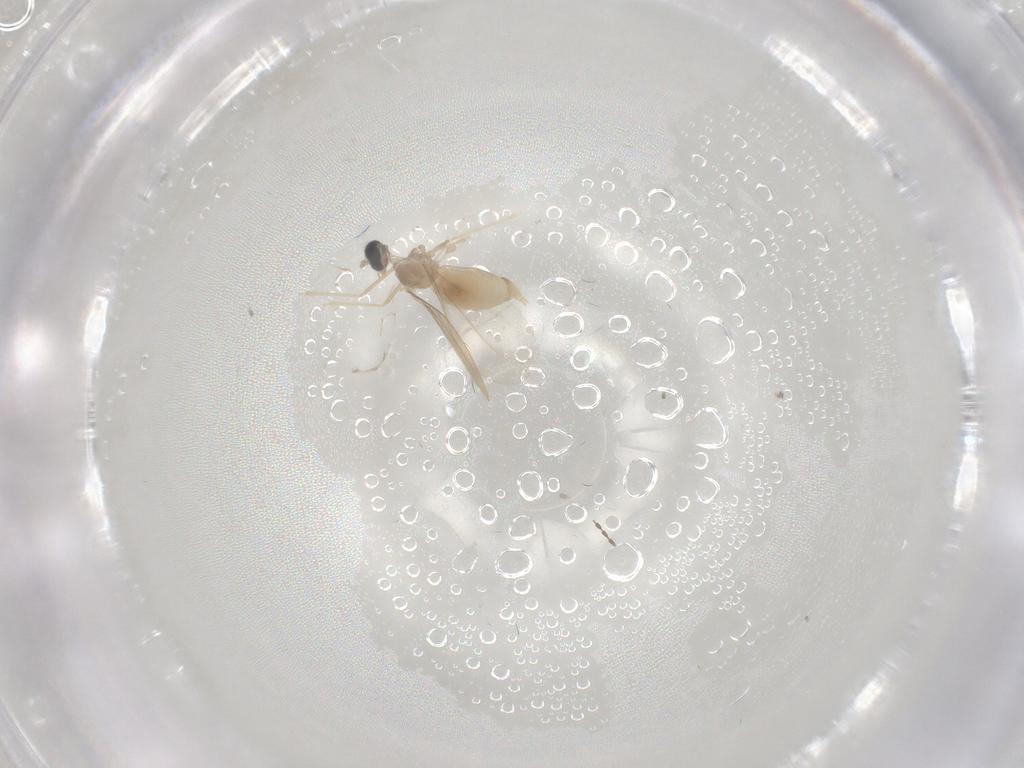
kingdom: Animalia
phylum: Arthropoda
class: Insecta
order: Diptera
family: Cecidomyiidae
